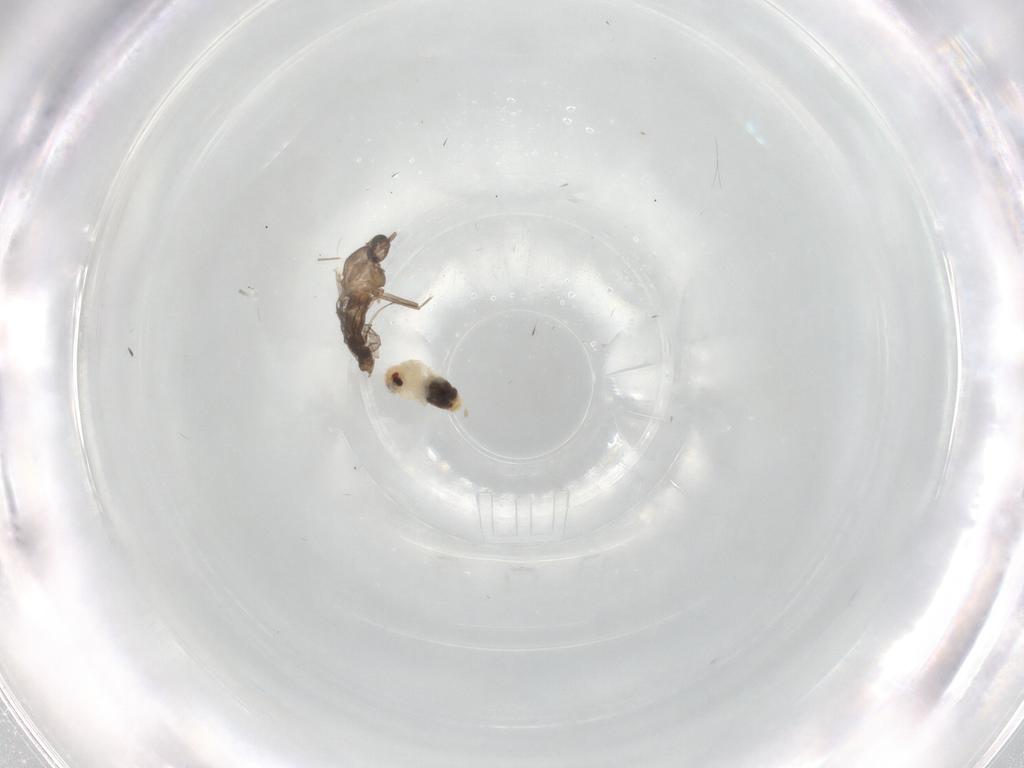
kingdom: Animalia
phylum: Arthropoda
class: Insecta
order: Hemiptera
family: Aleyrodidae
